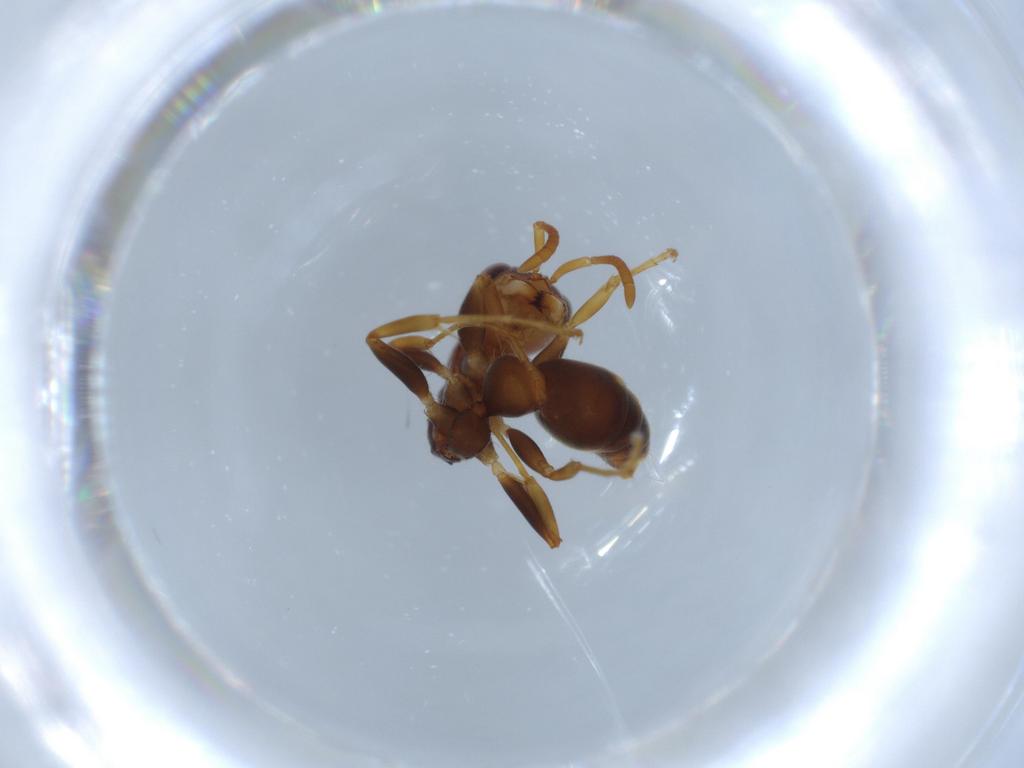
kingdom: Animalia
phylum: Arthropoda
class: Insecta
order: Hymenoptera
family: Formicidae
